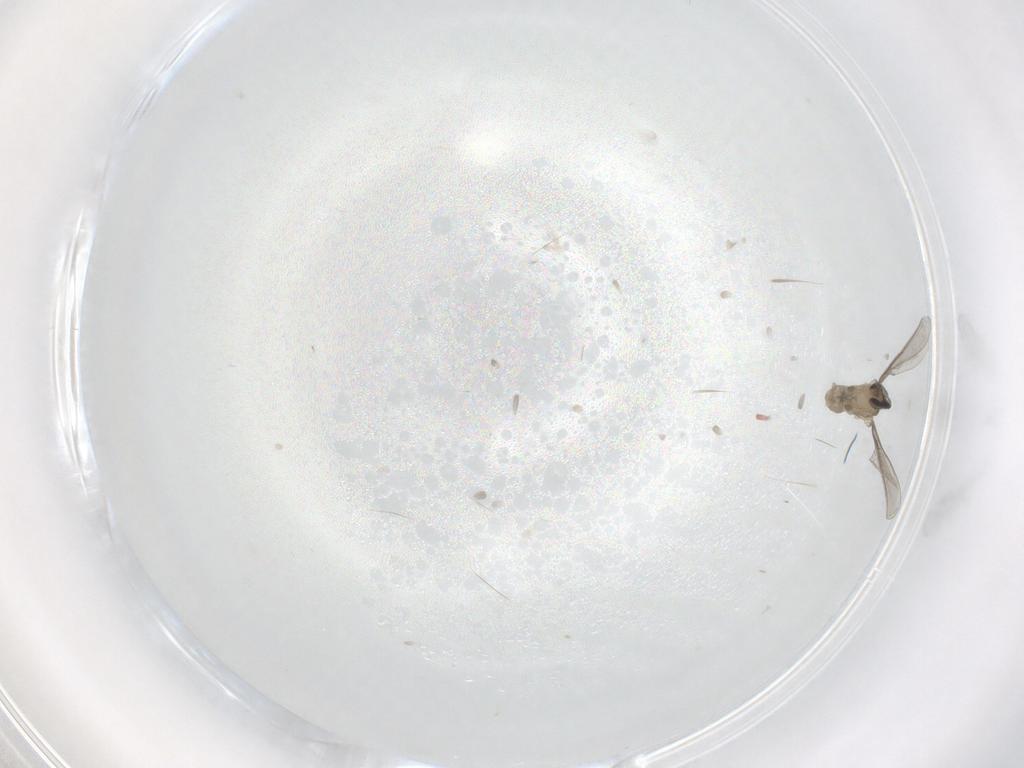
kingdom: Animalia
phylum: Arthropoda
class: Insecta
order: Diptera
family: Cecidomyiidae
